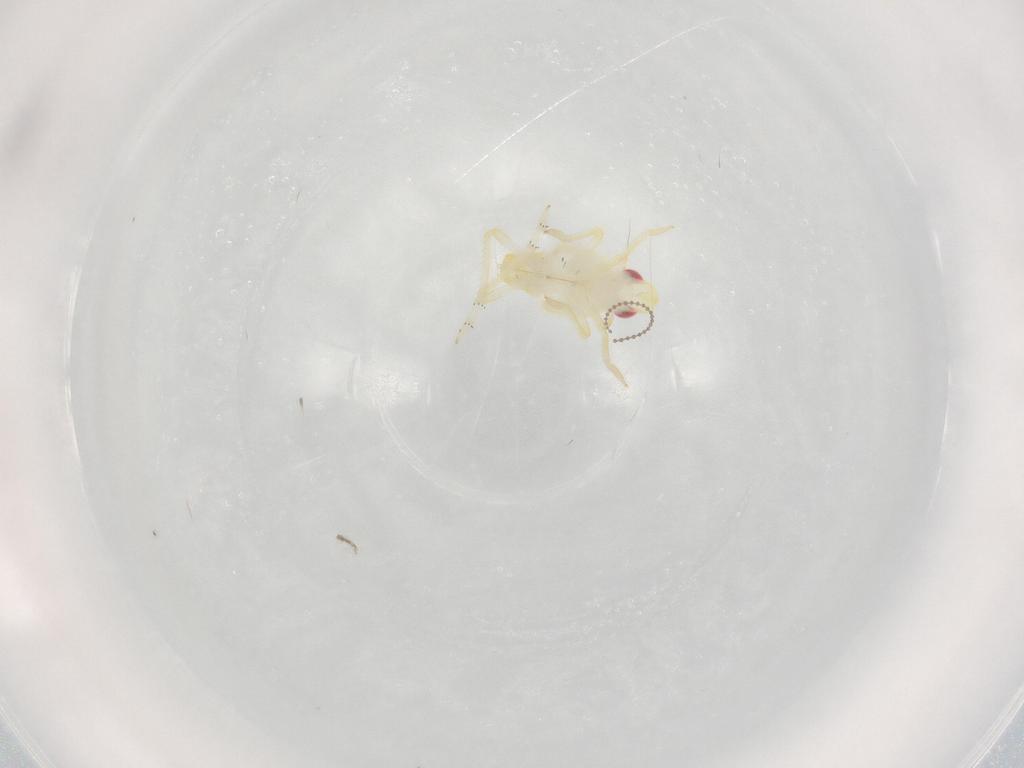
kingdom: Animalia
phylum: Arthropoda
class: Insecta
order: Hemiptera
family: Tropiduchidae
